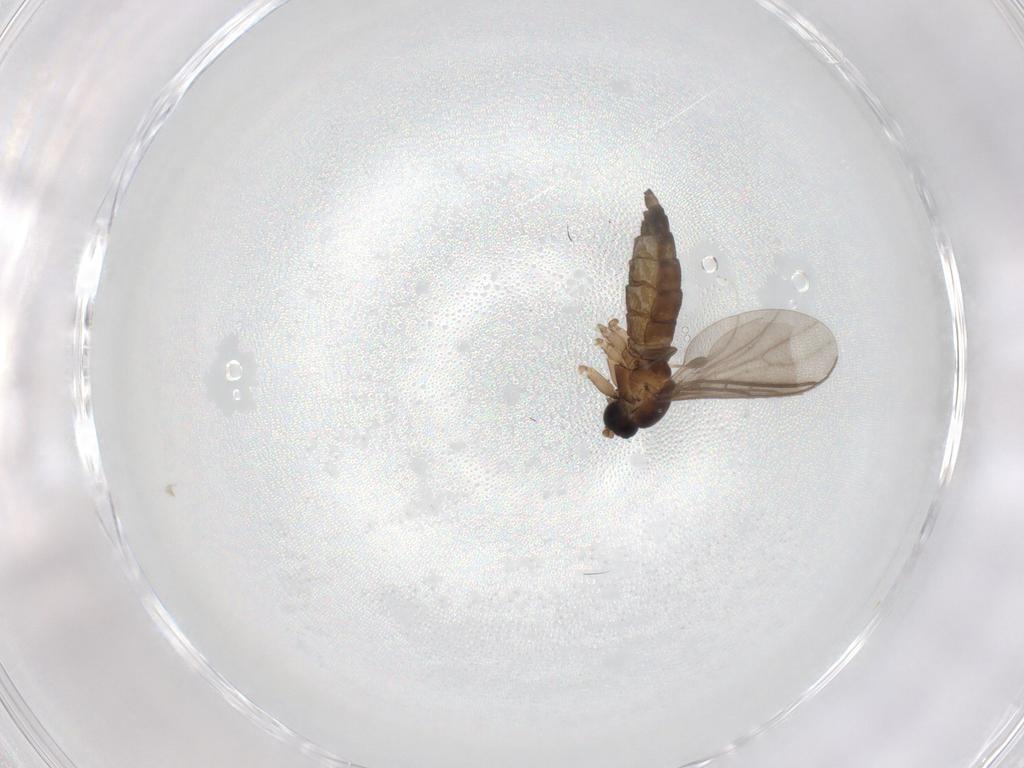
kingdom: Animalia
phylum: Arthropoda
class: Insecta
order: Diptera
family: Sciaridae
